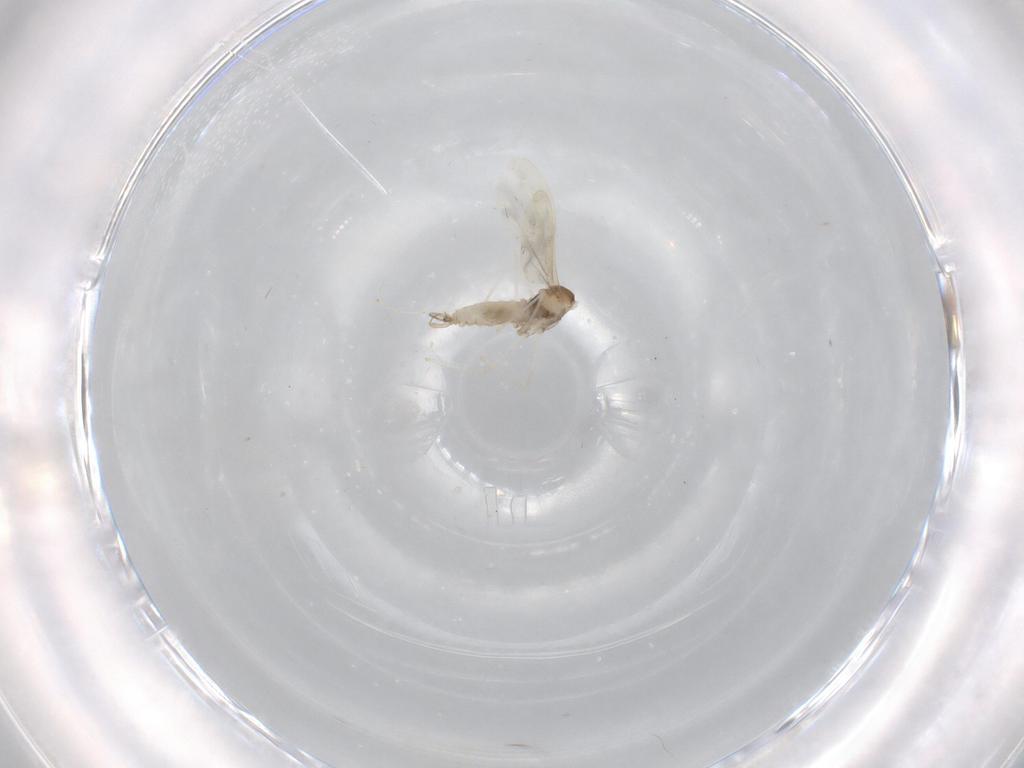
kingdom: Animalia
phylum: Arthropoda
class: Insecta
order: Diptera
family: Cecidomyiidae
